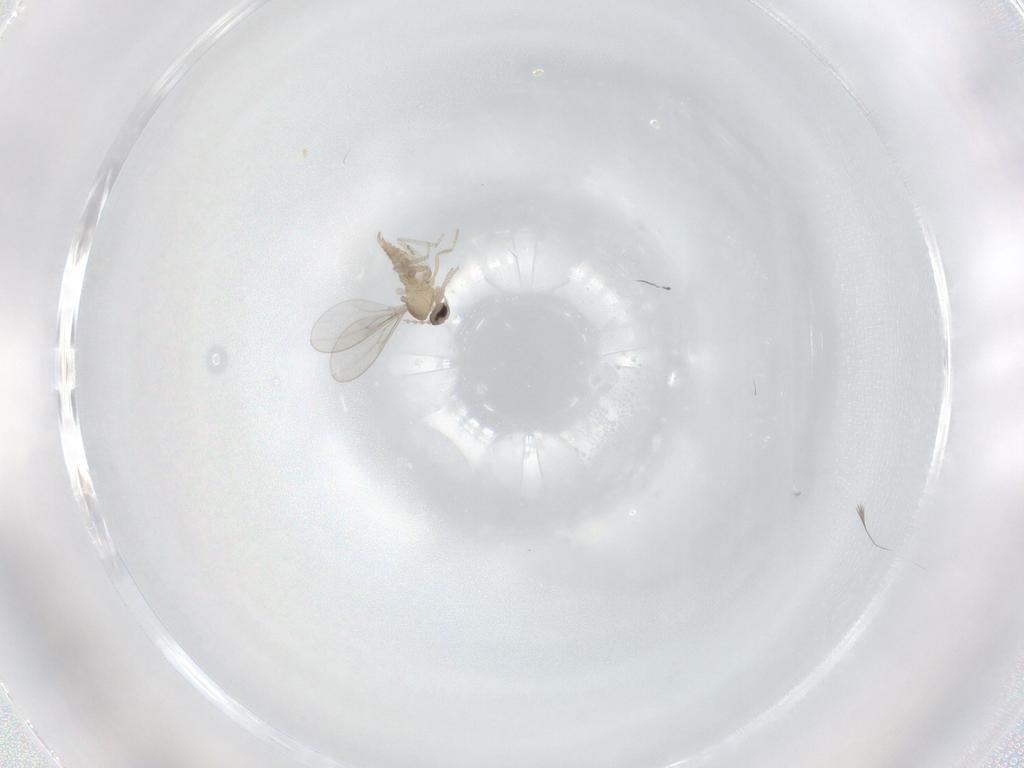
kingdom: Animalia
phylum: Arthropoda
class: Insecta
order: Diptera
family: Cecidomyiidae
